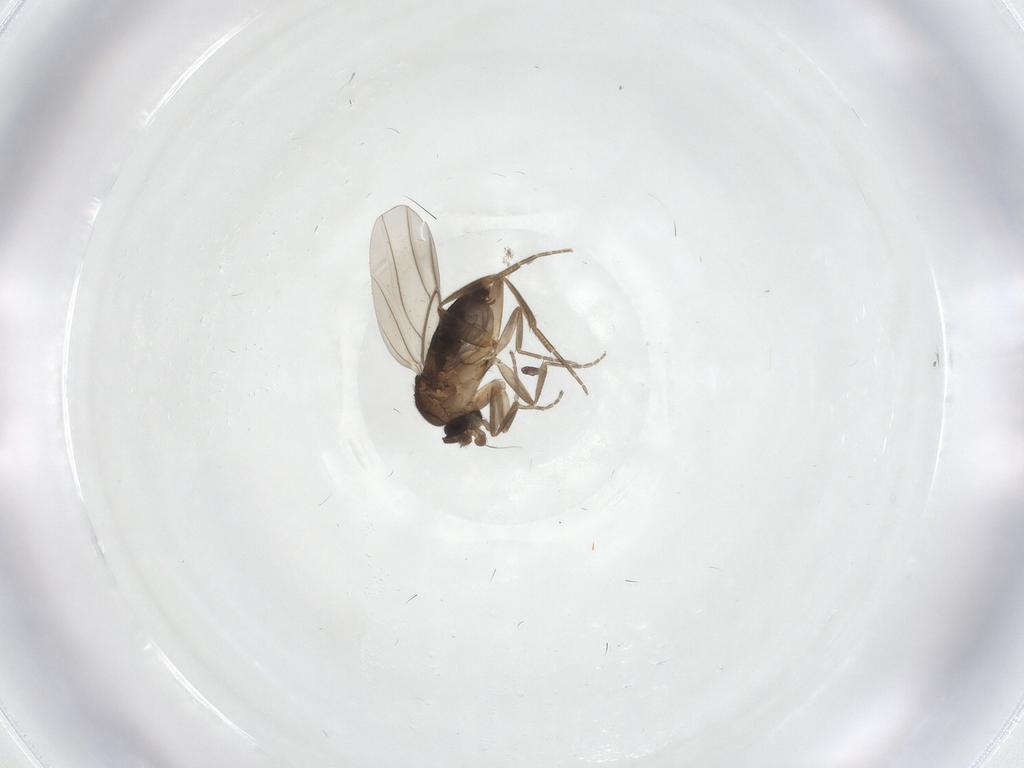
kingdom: Animalia
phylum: Arthropoda
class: Insecta
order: Diptera
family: Phoridae
